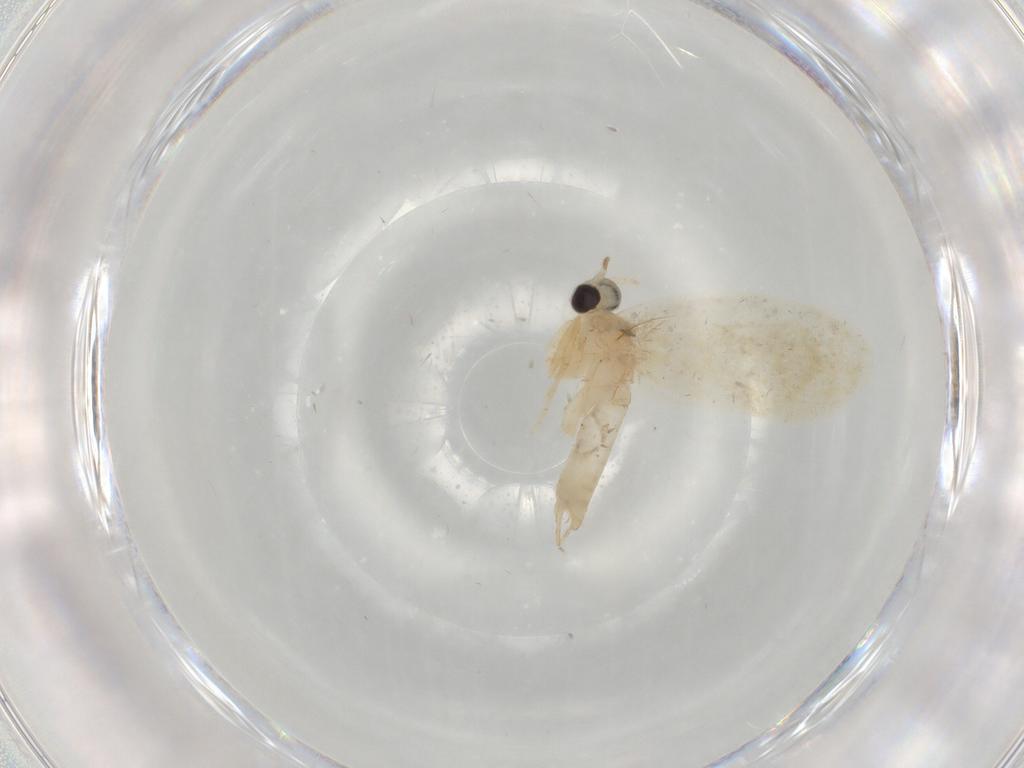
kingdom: Animalia
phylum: Arthropoda
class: Insecta
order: Lepidoptera
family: Psychidae
